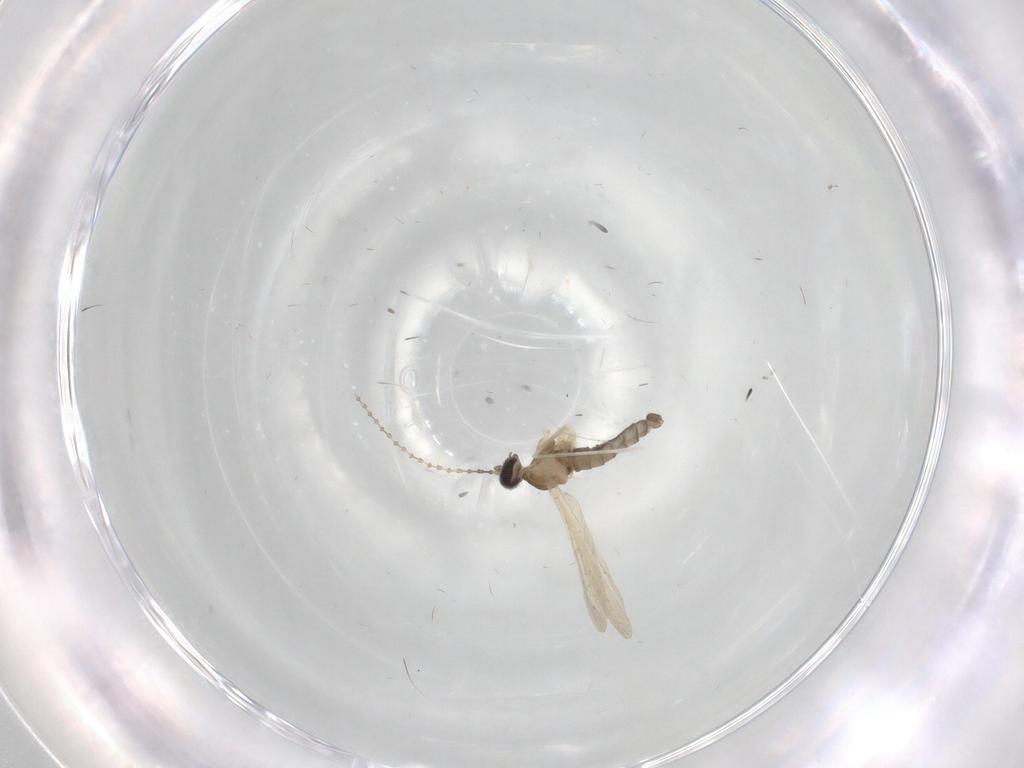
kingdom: Animalia
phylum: Arthropoda
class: Insecta
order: Diptera
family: Cecidomyiidae
